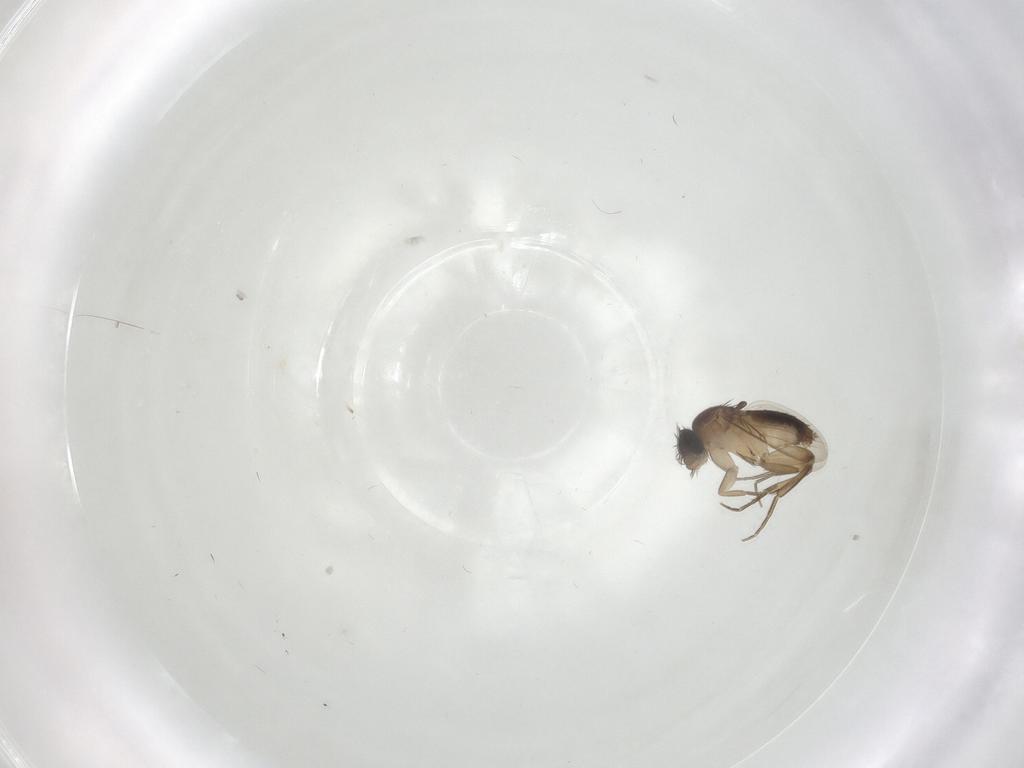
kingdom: Animalia
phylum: Arthropoda
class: Insecta
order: Diptera
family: Phoridae
